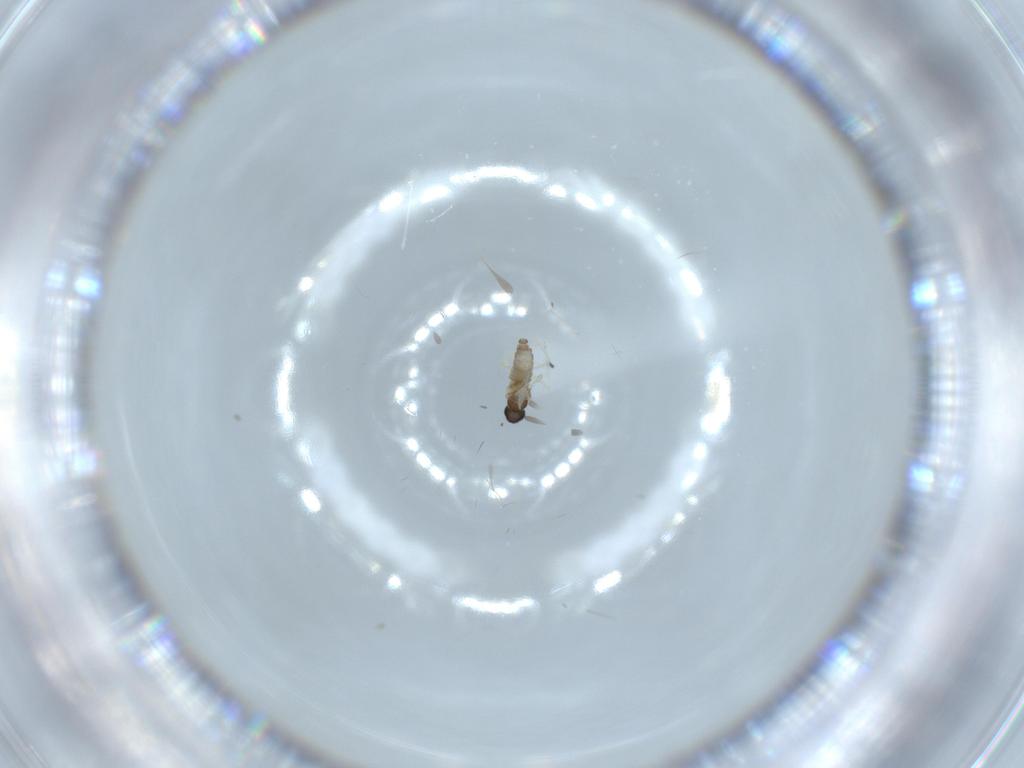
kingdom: Animalia
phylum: Arthropoda
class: Insecta
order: Diptera
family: Cecidomyiidae
